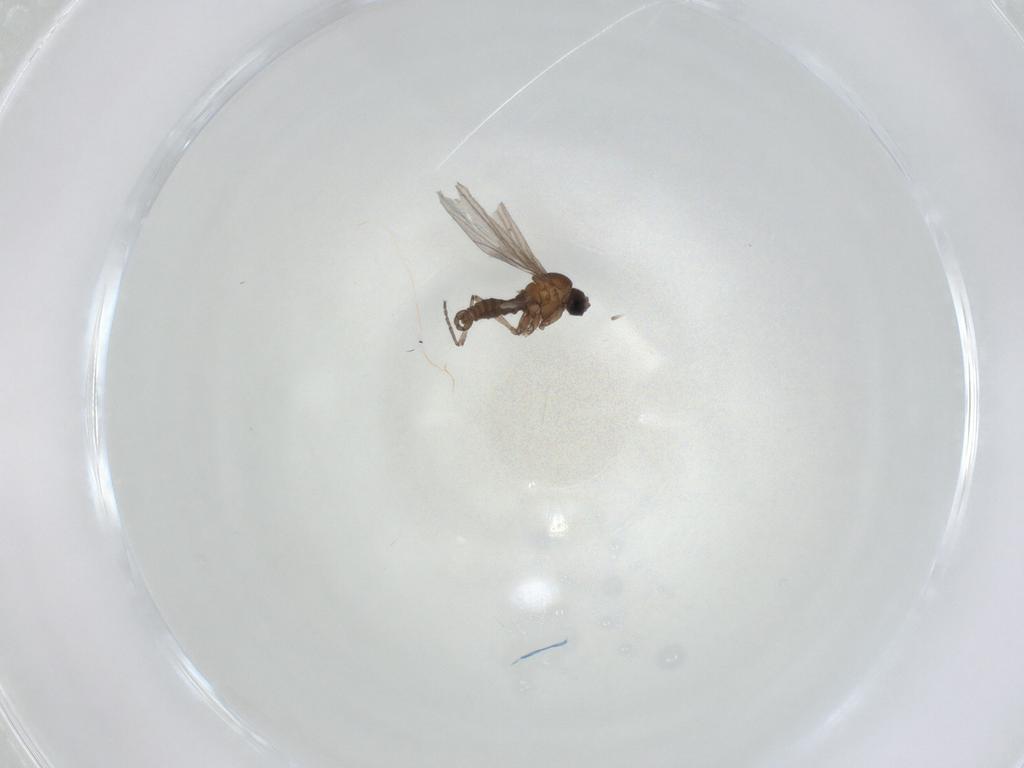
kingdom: Animalia
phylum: Arthropoda
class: Insecta
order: Diptera
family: Sciaridae
